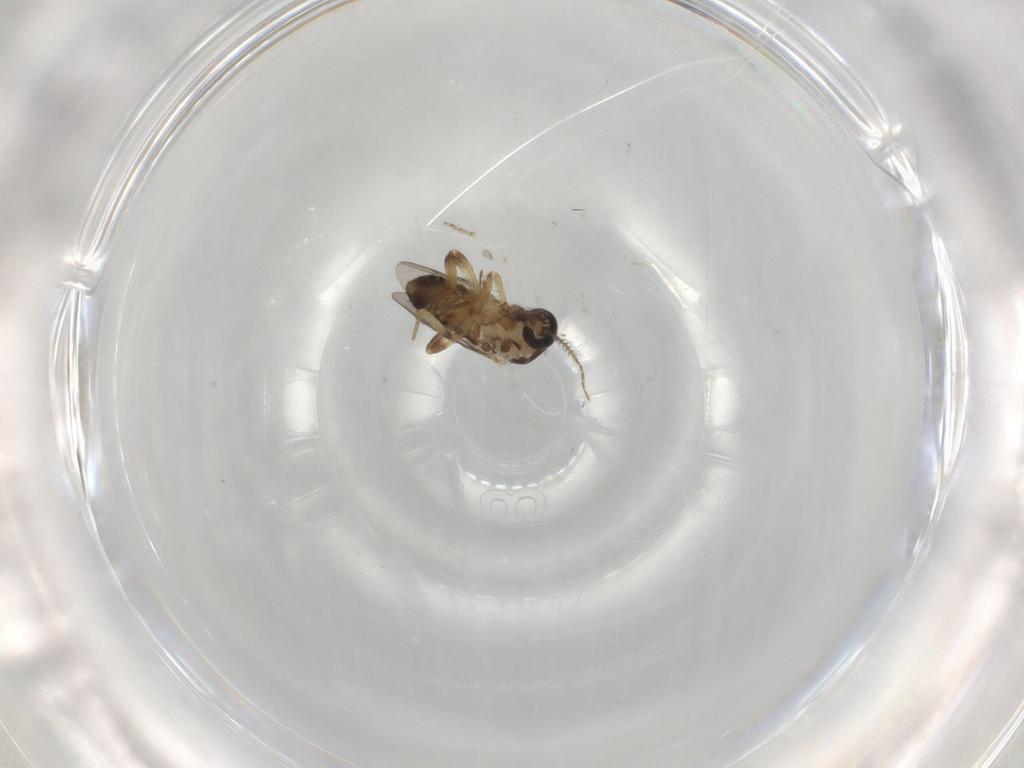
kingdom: Animalia
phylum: Arthropoda
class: Insecta
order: Diptera
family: Ceratopogonidae
